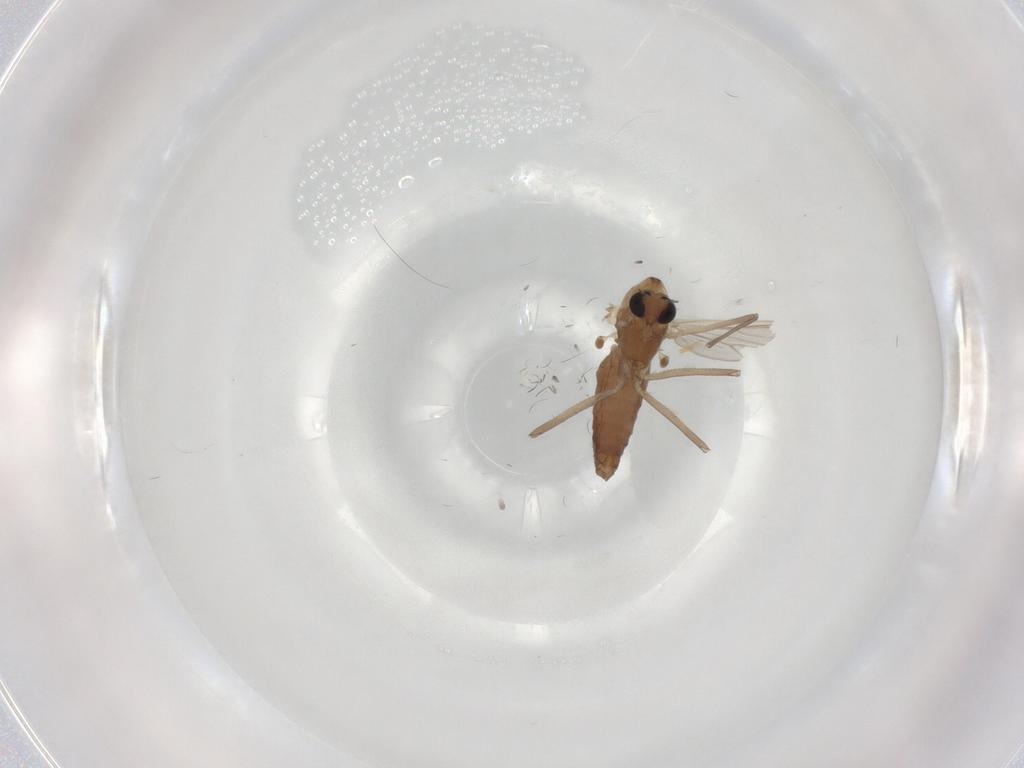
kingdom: Animalia
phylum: Arthropoda
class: Insecta
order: Diptera
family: Chironomidae
